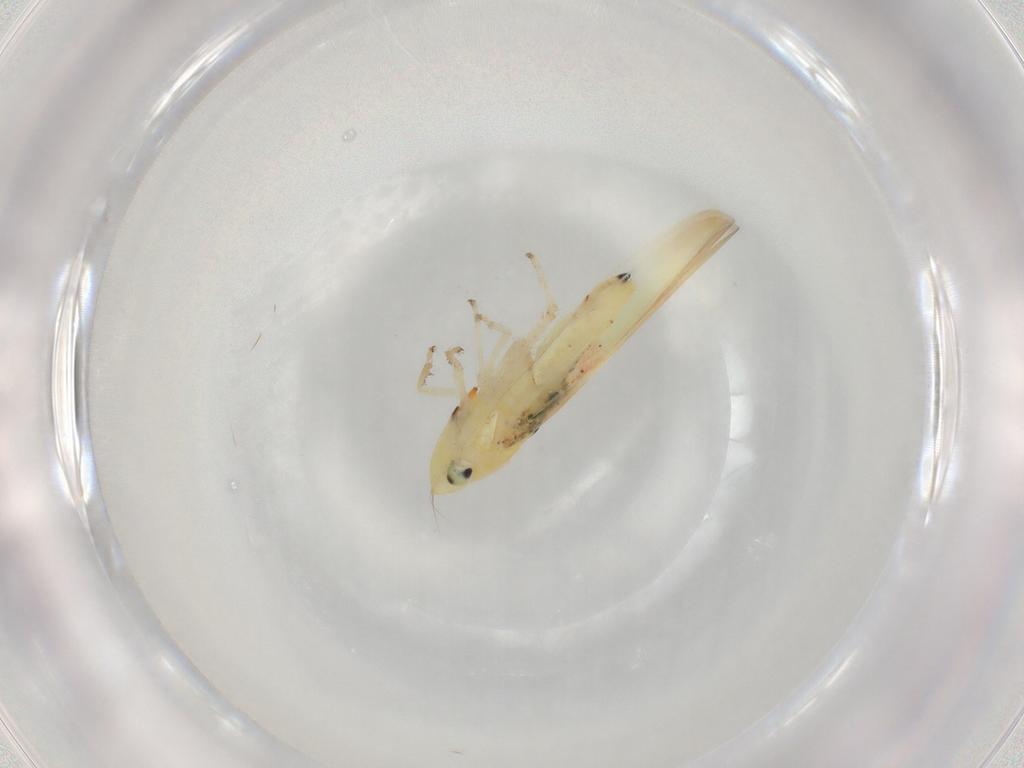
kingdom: Animalia
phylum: Arthropoda
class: Insecta
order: Hemiptera
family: Cicadellidae
